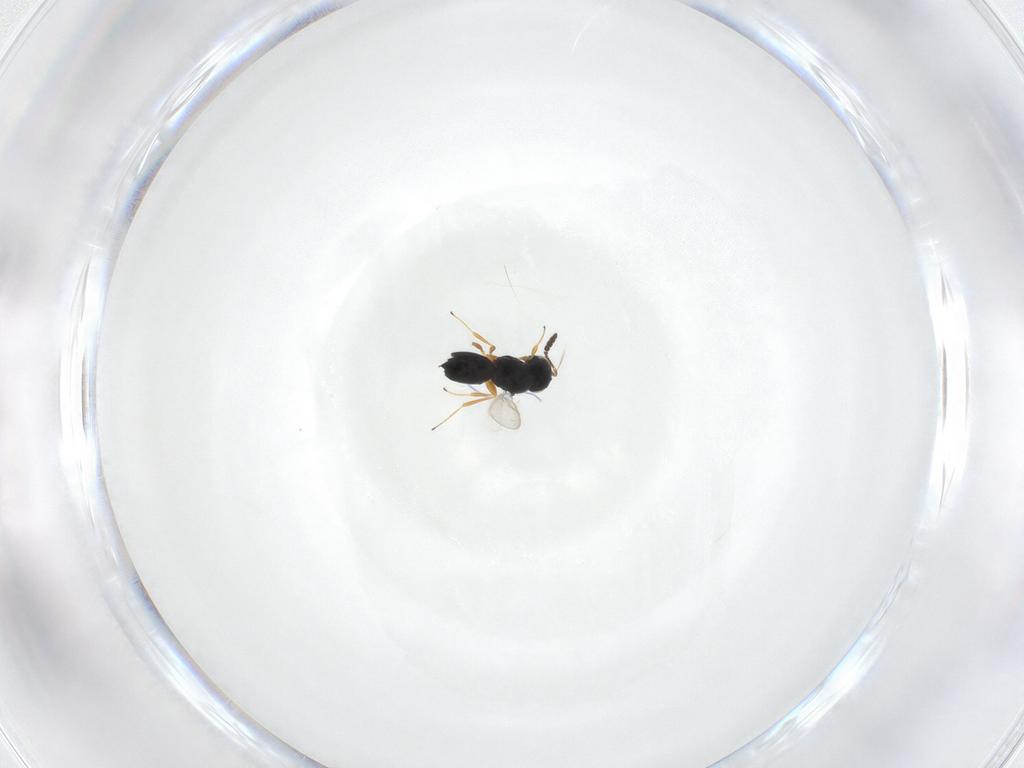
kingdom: Animalia
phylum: Arthropoda
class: Insecta
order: Hymenoptera
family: Scelionidae
